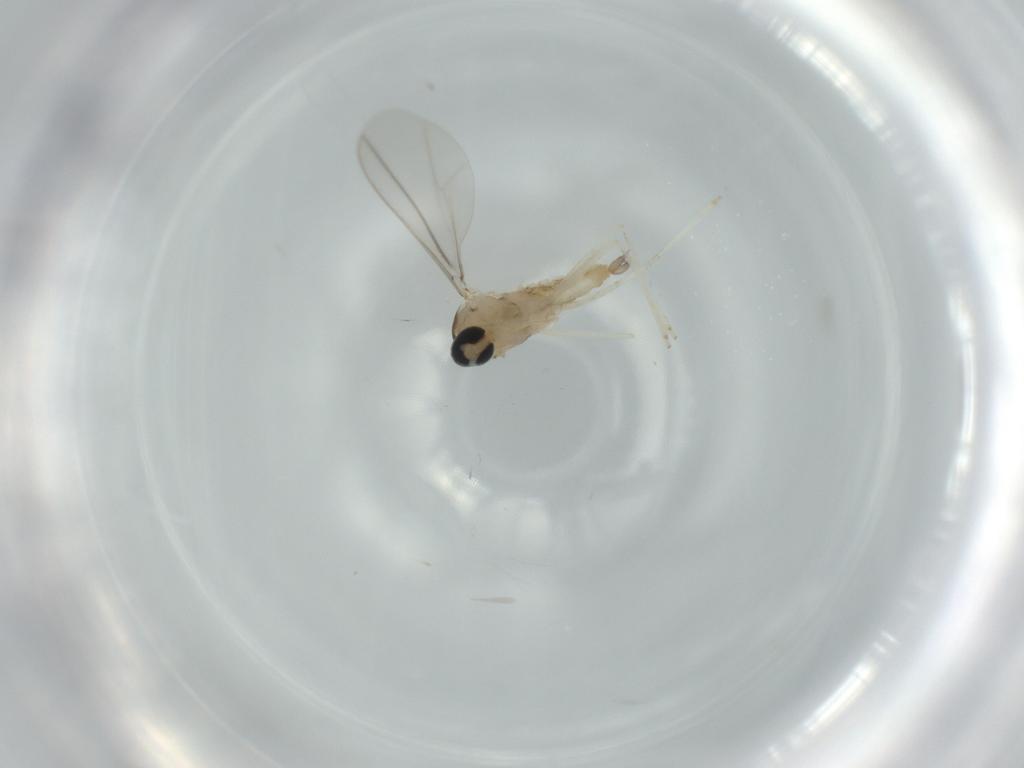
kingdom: Animalia
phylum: Arthropoda
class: Insecta
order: Diptera
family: Cecidomyiidae
